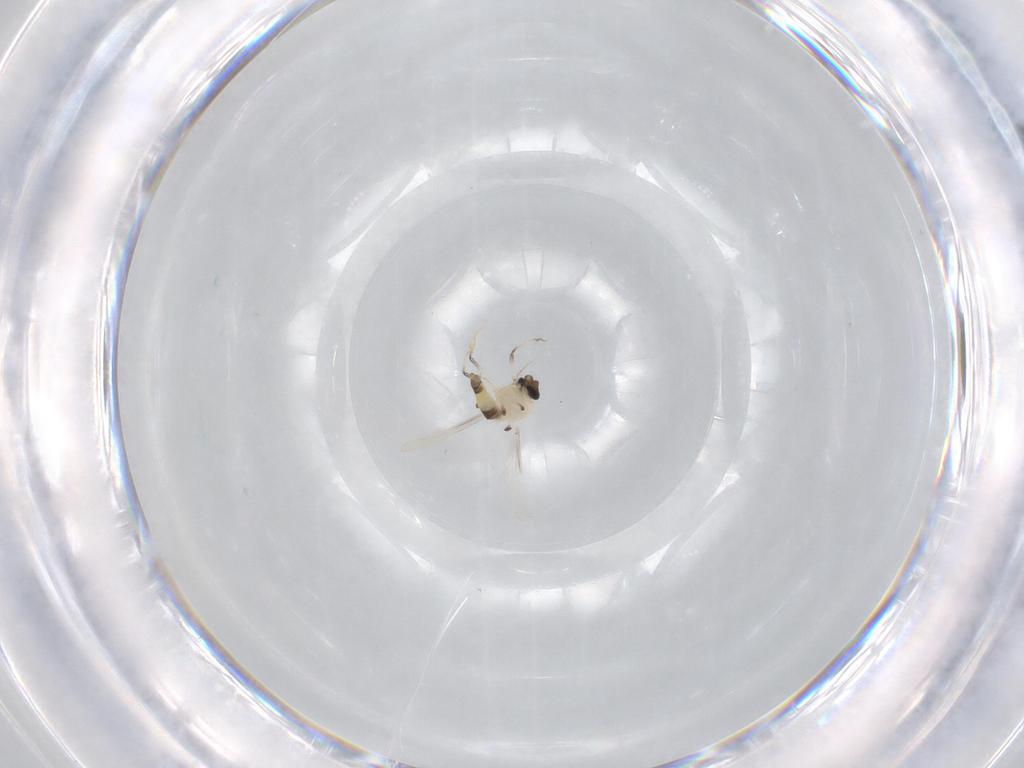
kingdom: Animalia
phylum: Arthropoda
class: Insecta
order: Diptera
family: Chironomidae
